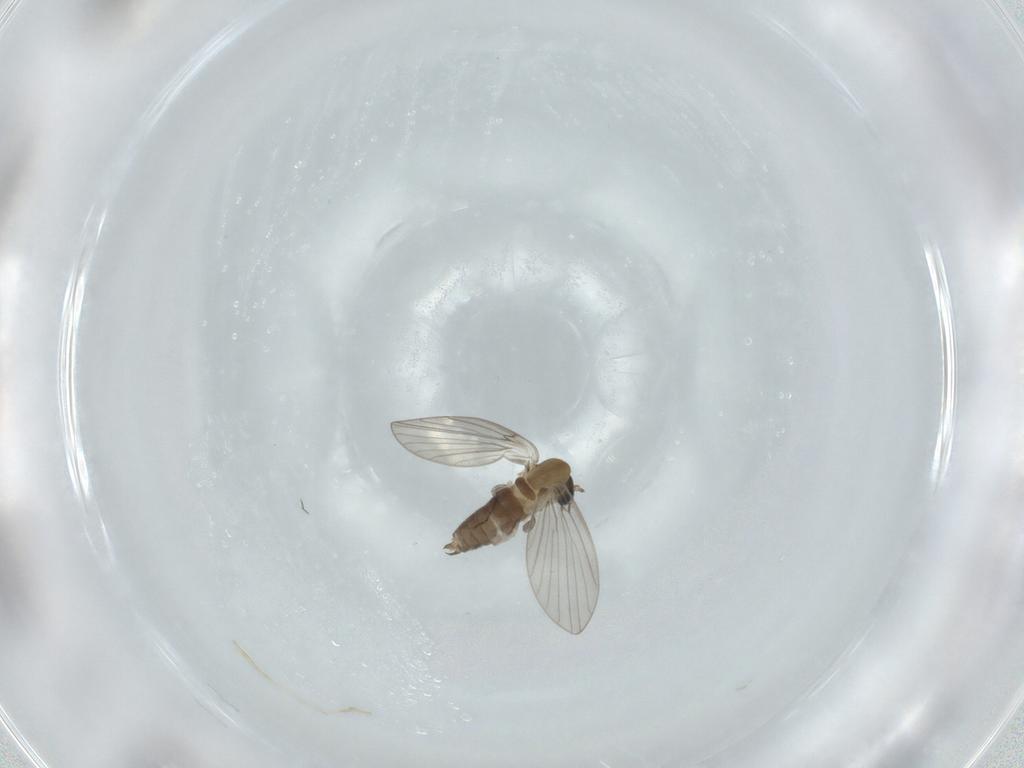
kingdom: Animalia
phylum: Arthropoda
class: Insecta
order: Diptera
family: Psychodidae
